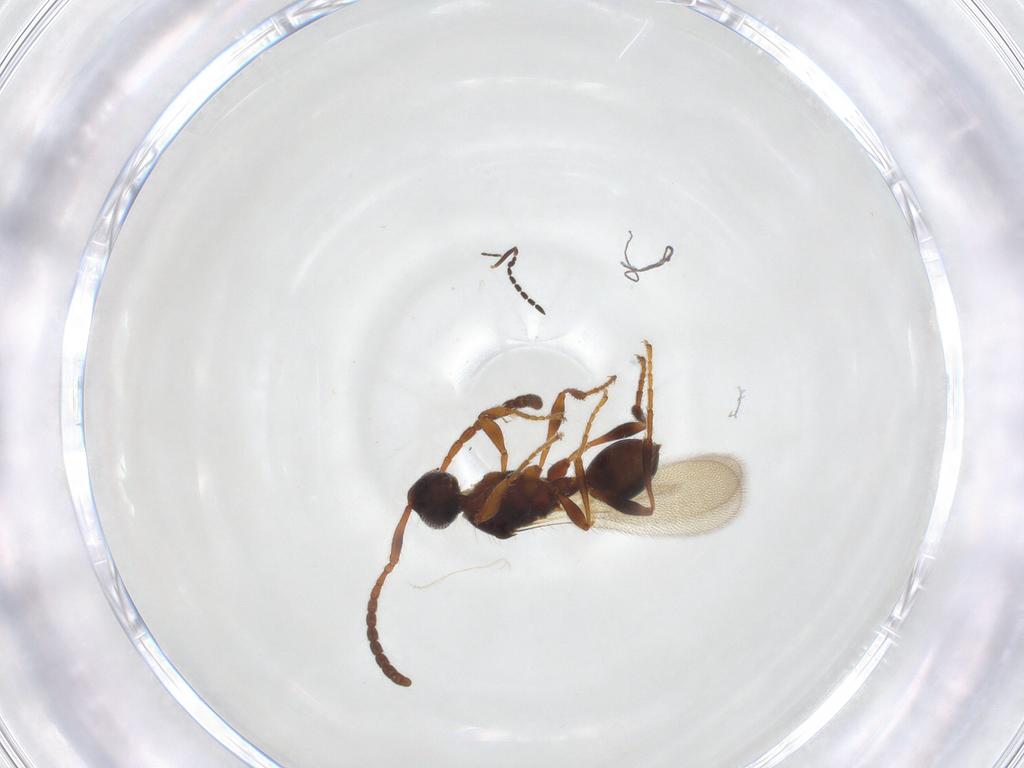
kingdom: Animalia
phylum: Arthropoda
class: Insecta
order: Hymenoptera
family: Diapriidae
